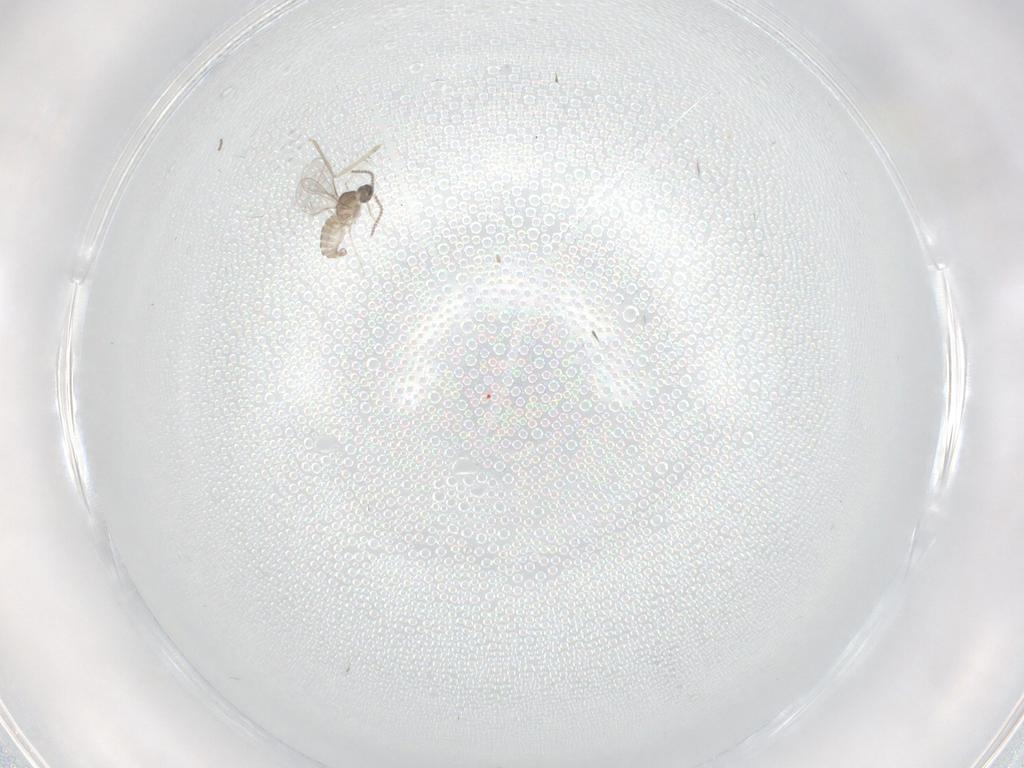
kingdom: Animalia
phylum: Arthropoda
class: Insecta
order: Diptera
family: Cecidomyiidae
